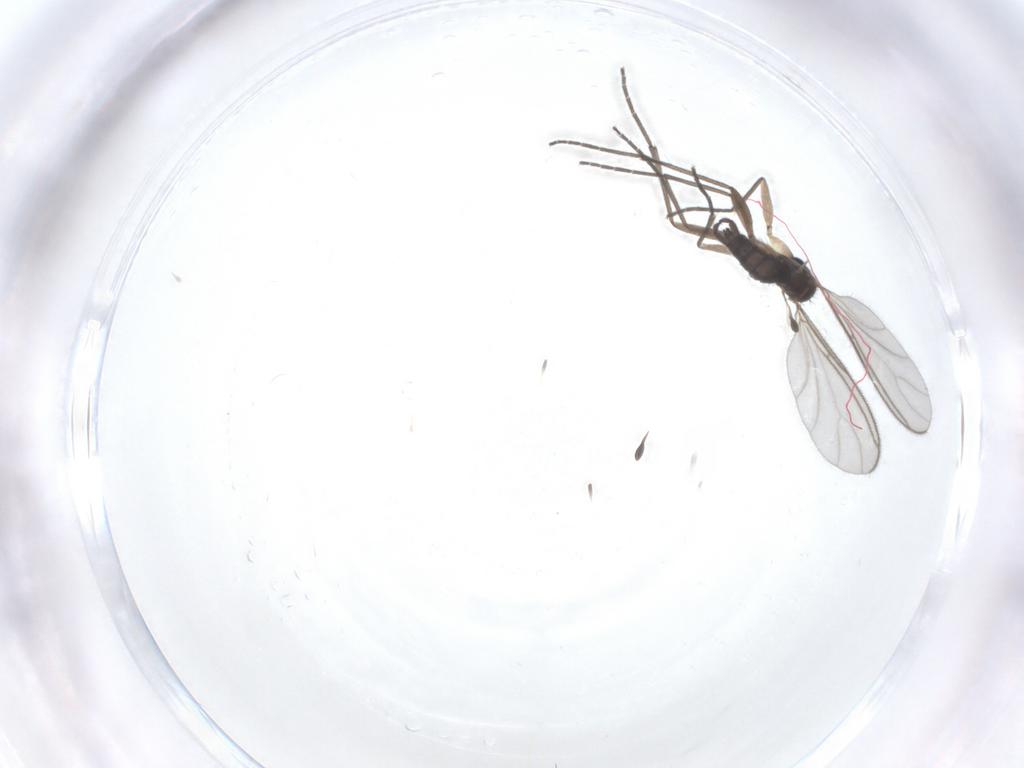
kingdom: Animalia
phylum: Arthropoda
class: Insecta
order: Diptera
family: Sciaridae
